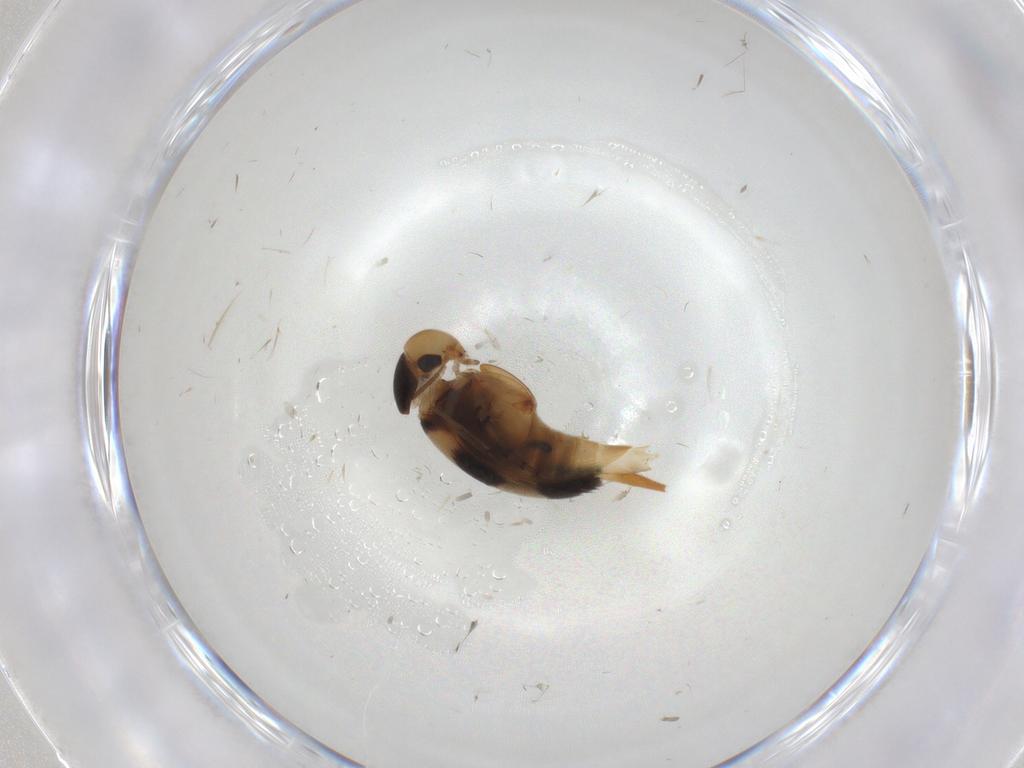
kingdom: Animalia
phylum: Arthropoda
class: Insecta
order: Coleoptera
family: Mordellidae
